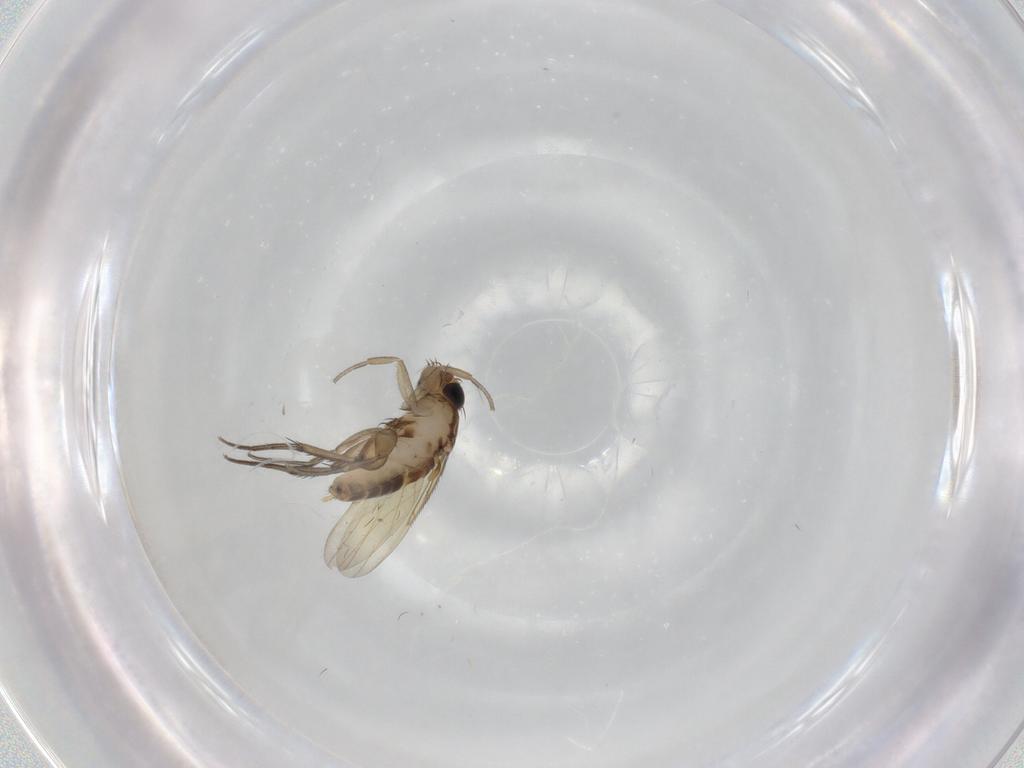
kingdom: Animalia
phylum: Arthropoda
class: Insecta
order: Diptera
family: Phoridae
